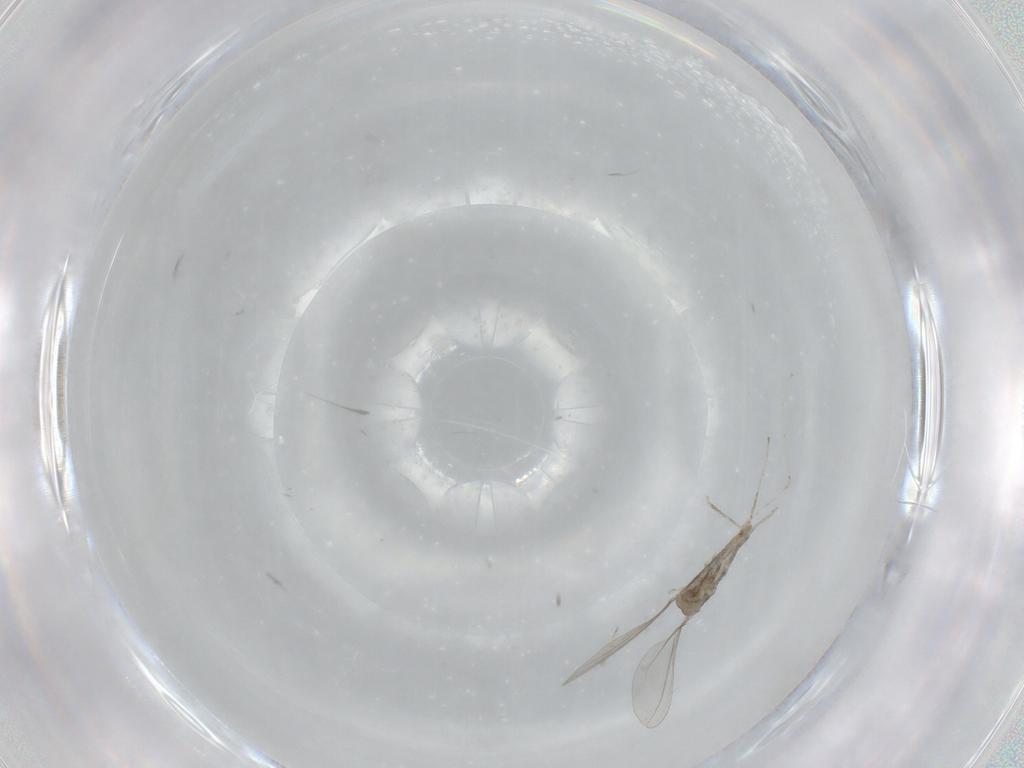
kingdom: Animalia
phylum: Arthropoda
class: Insecta
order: Diptera
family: Cecidomyiidae
